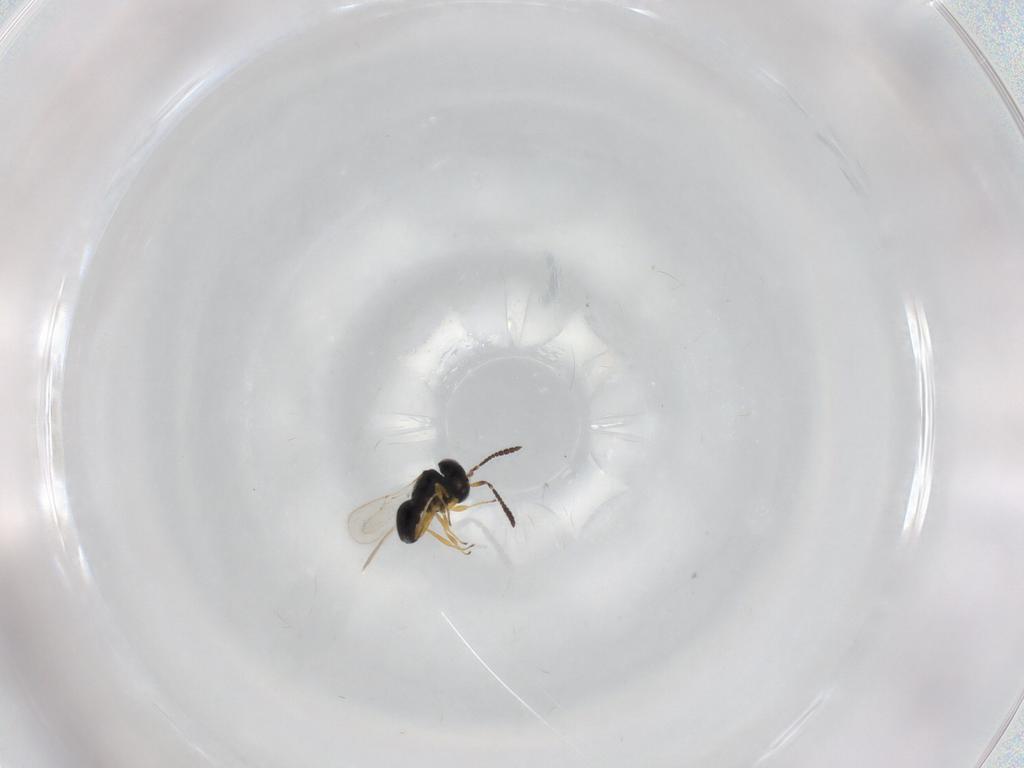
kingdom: Animalia
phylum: Arthropoda
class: Insecta
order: Hymenoptera
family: Scelionidae
